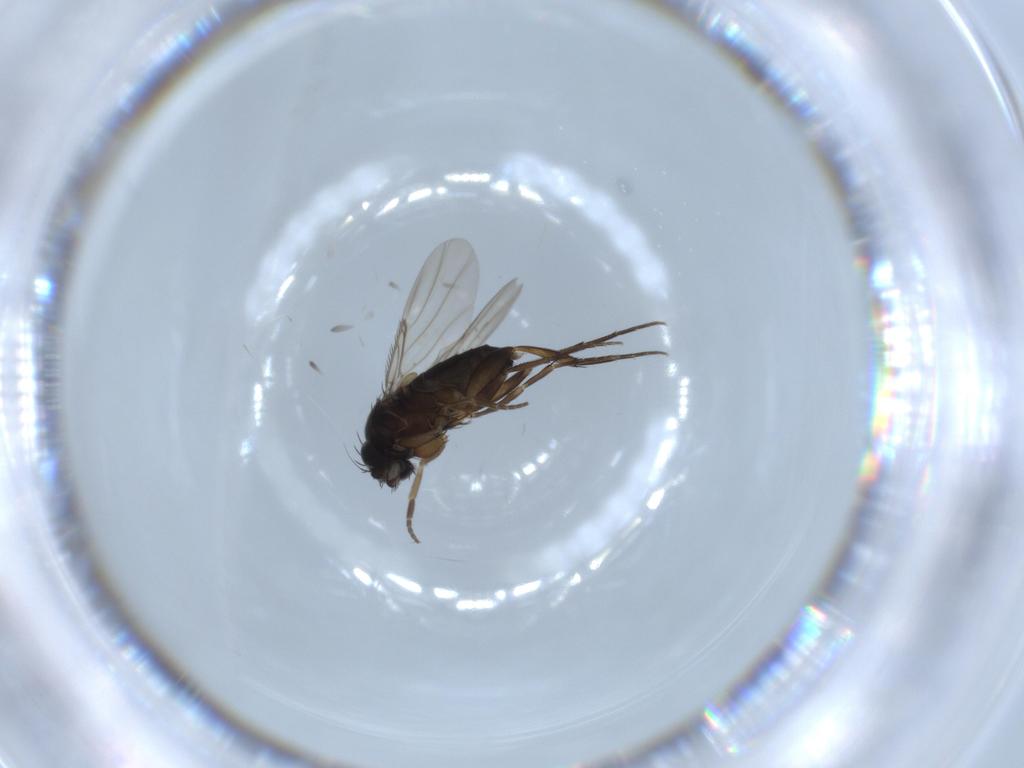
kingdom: Animalia
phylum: Arthropoda
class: Insecta
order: Diptera
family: Phoridae
